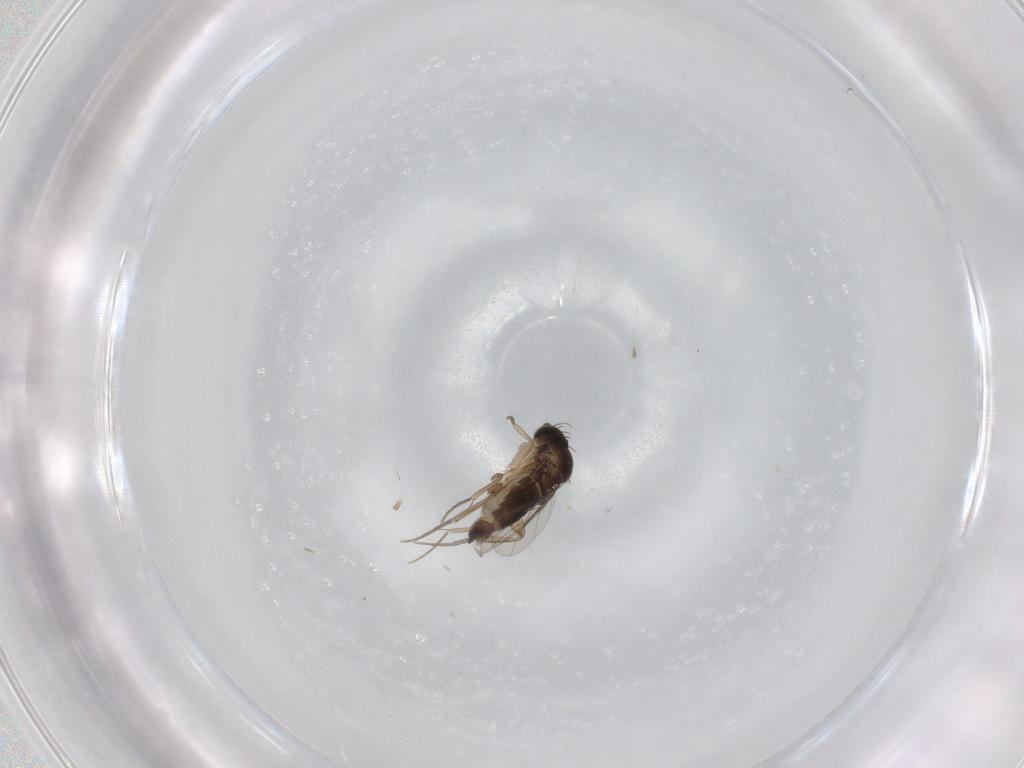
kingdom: Animalia
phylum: Arthropoda
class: Insecta
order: Diptera
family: Phoridae
